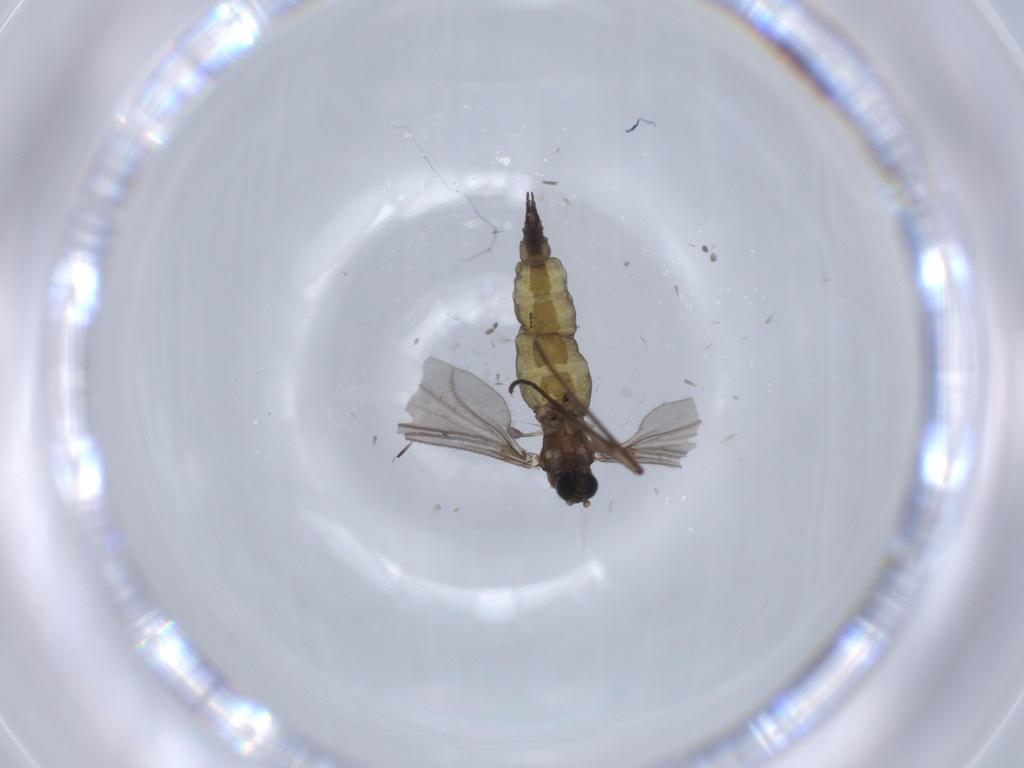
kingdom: Animalia
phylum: Arthropoda
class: Insecta
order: Diptera
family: Sciaridae
